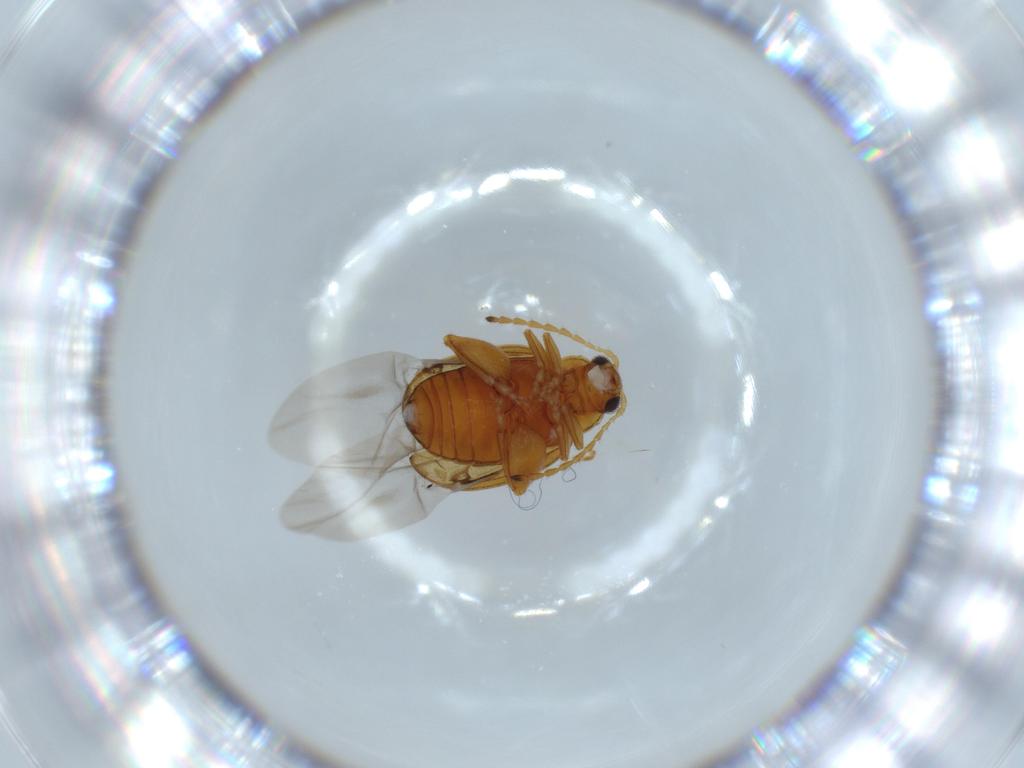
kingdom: Animalia
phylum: Arthropoda
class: Insecta
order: Coleoptera
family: Chrysomelidae
